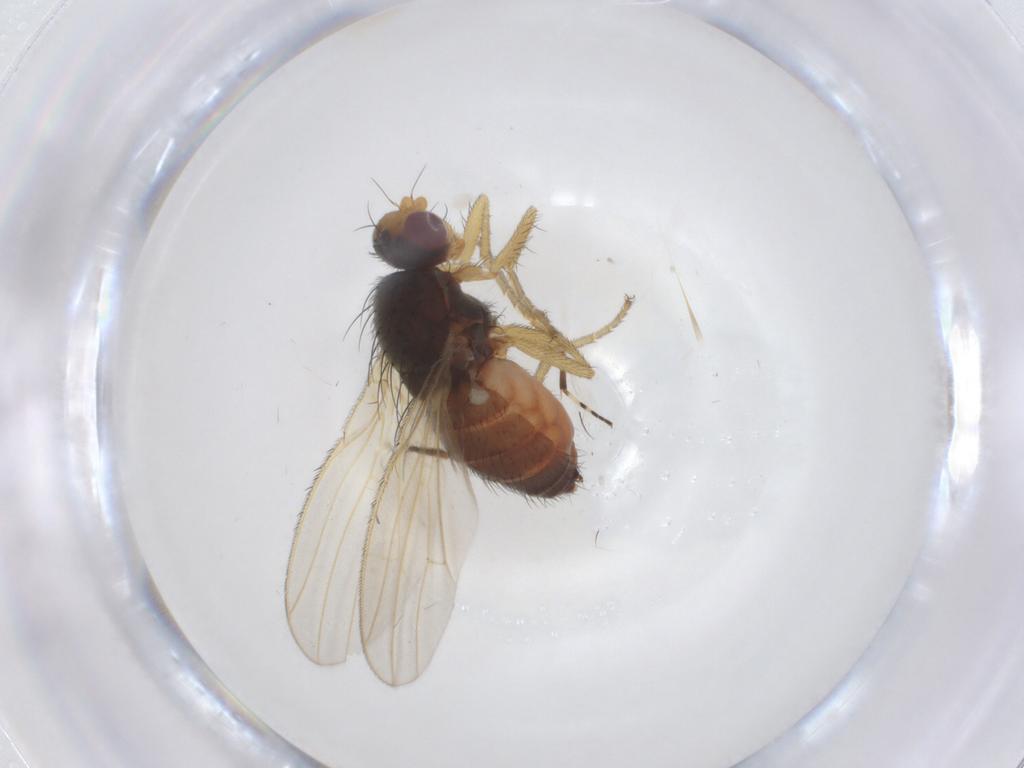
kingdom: Animalia
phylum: Arthropoda
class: Insecta
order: Diptera
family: Heleomyzidae
